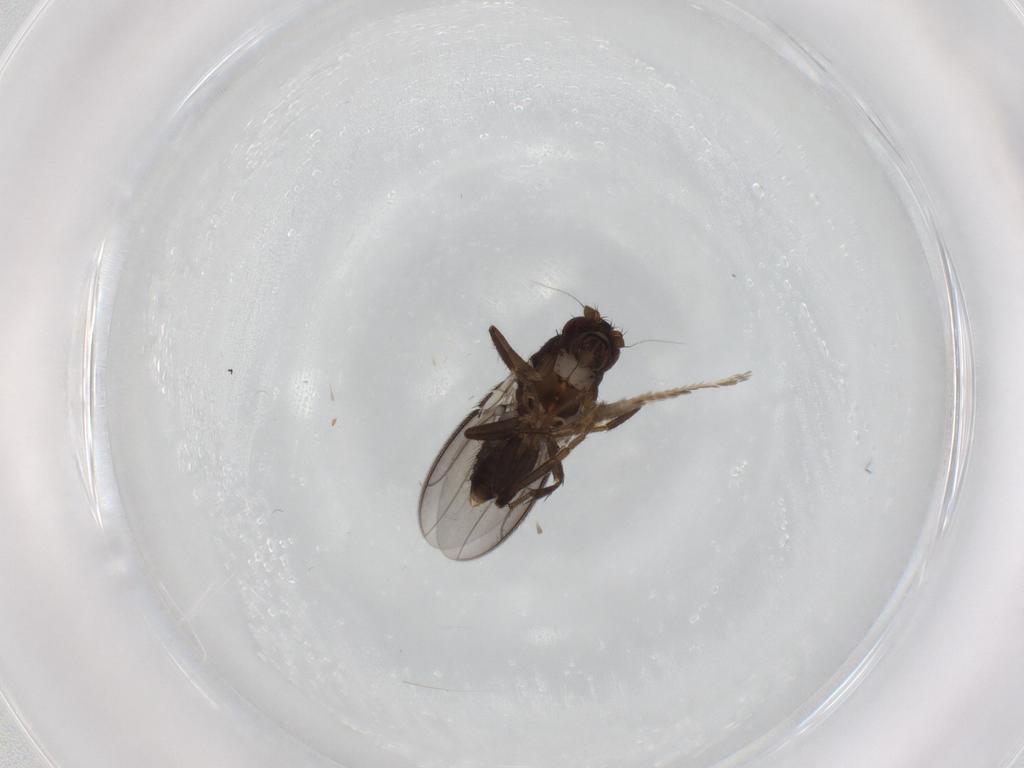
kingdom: Animalia
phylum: Arthropoda
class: Insecta
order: Diptera
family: Sphaeroceridae
